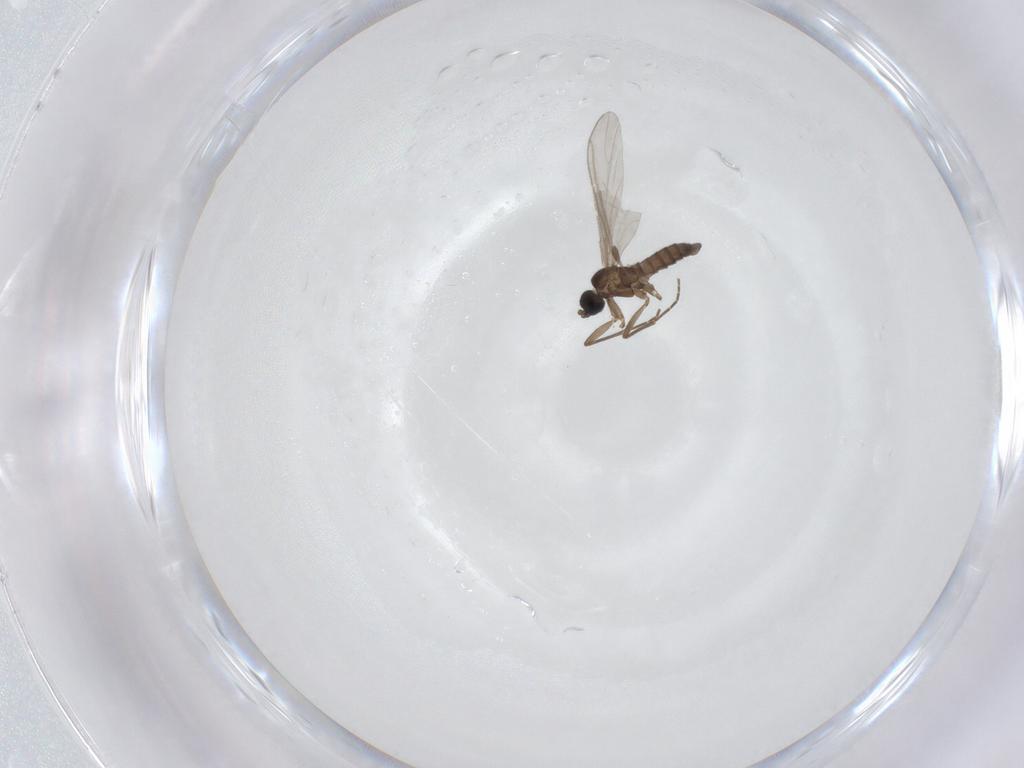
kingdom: Animalia
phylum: Arthropoda
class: Insecta
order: Diptera
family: Sciaridae
